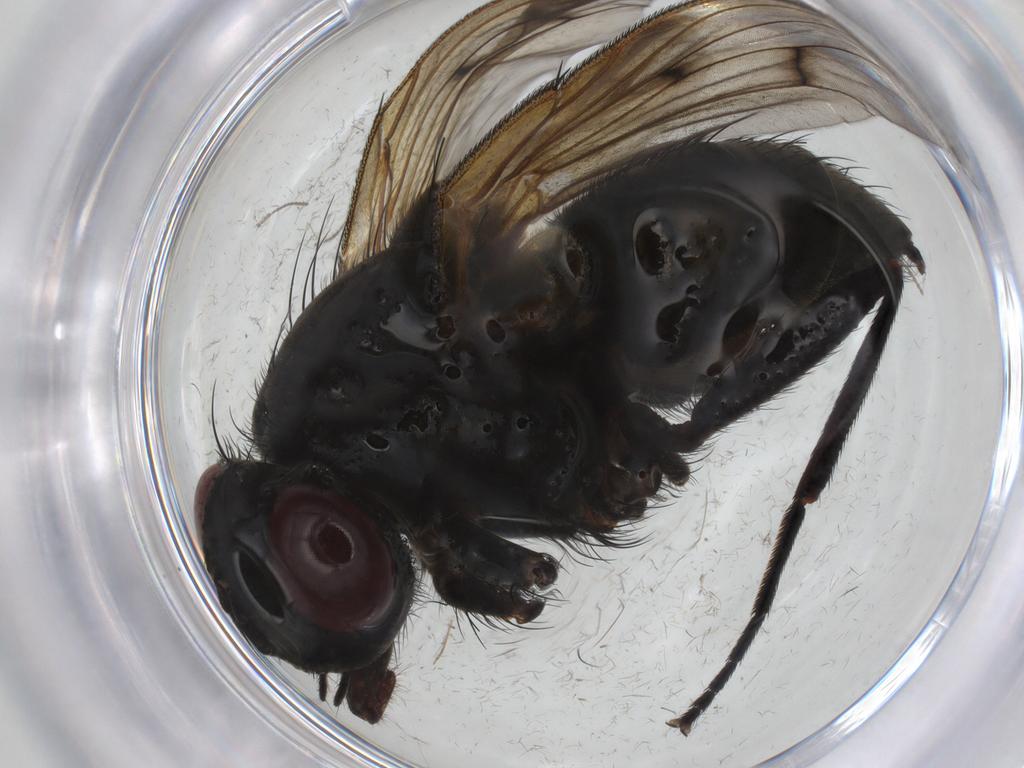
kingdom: Animalia
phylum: Arthropoda
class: Insecta
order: Diptera
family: Muscidae
